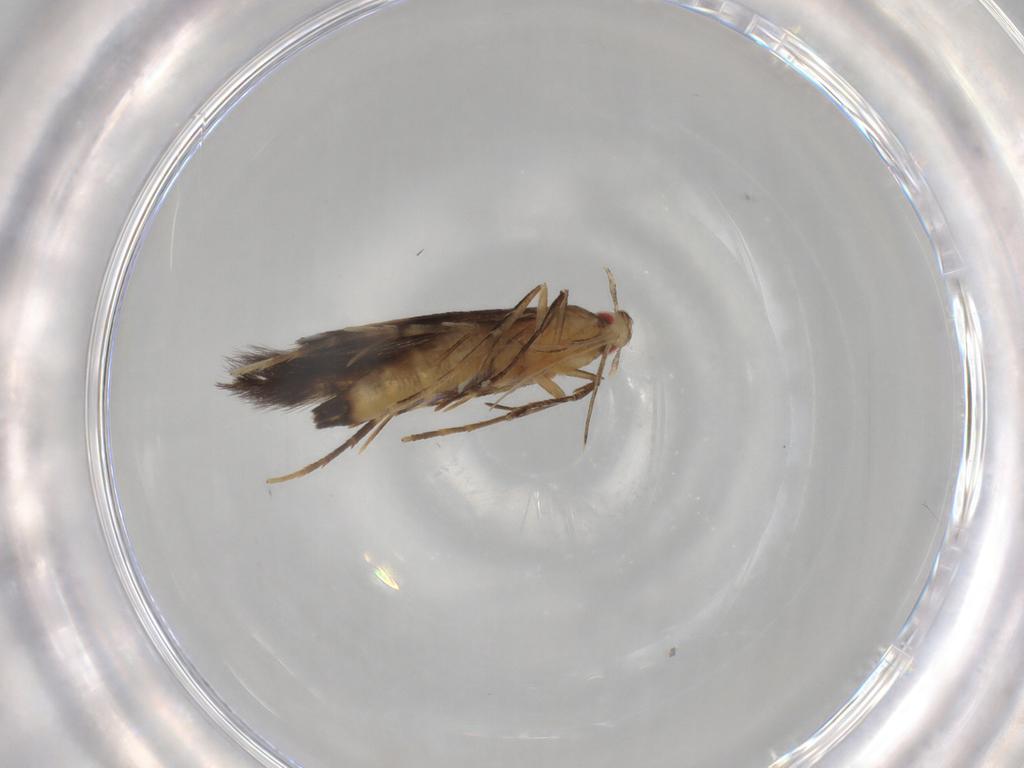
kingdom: Animalia
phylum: Arthropoda
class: Insecta
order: Lepidoptera
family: Cosmopterigidae
